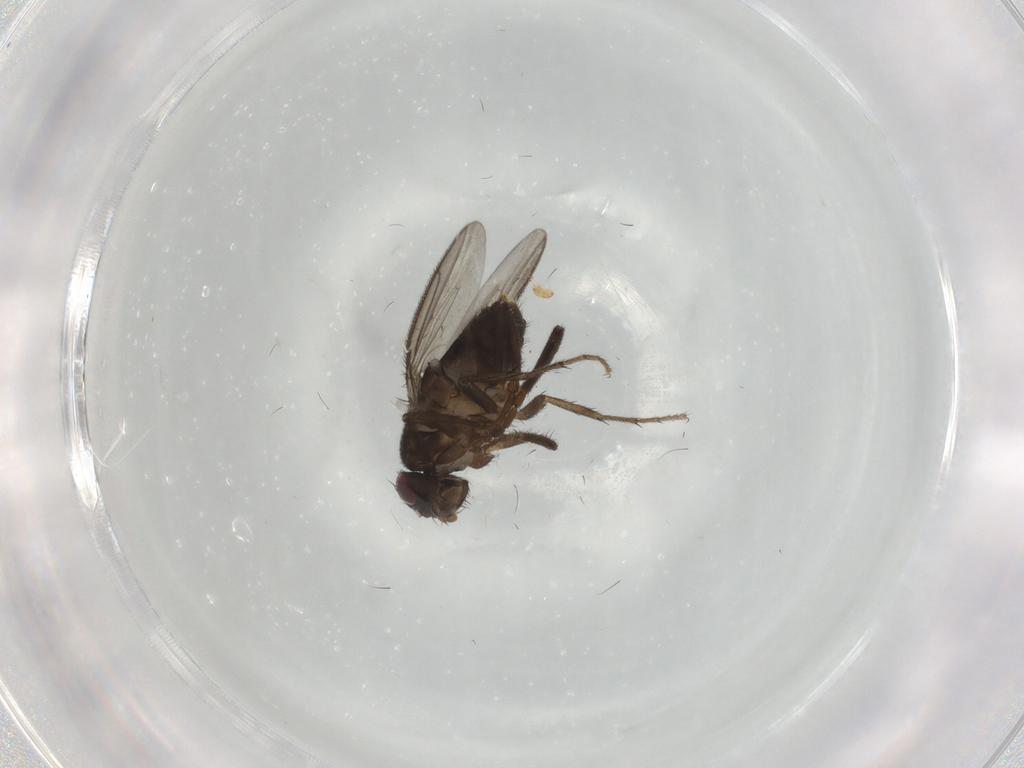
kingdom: Animalia
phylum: Arthropoda
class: Insecta
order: Diptera
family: Sphaeroceridae
